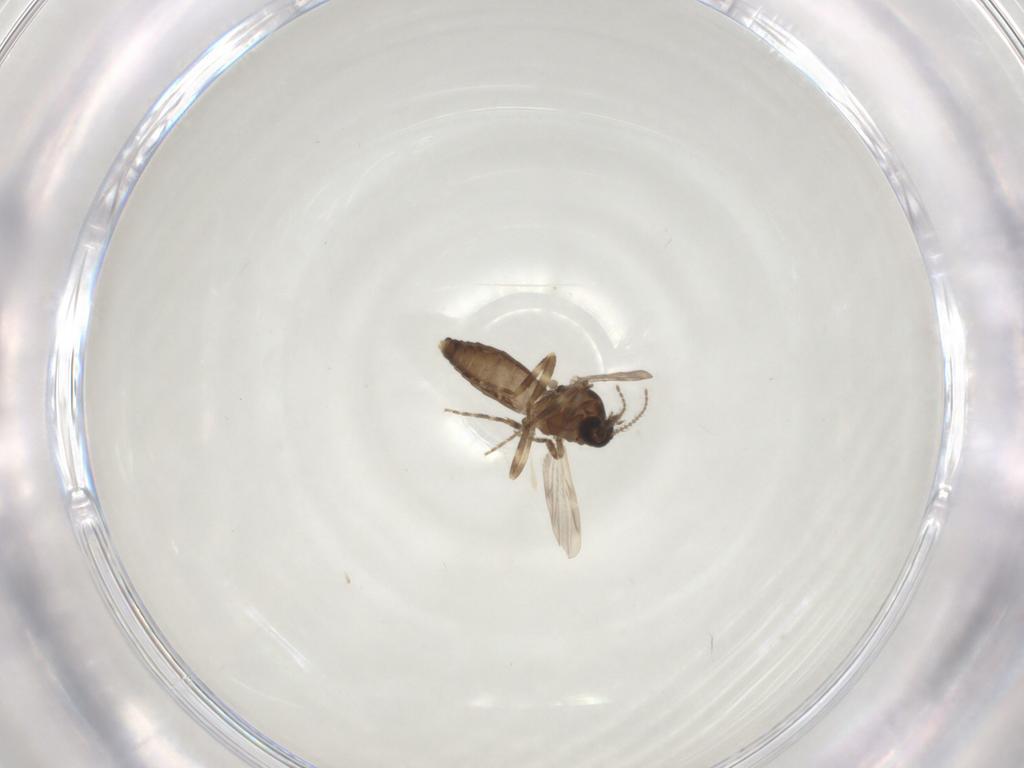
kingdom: Animalia
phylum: Arthropoda
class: Insecta
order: Diptera
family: Ceratopogonidae
